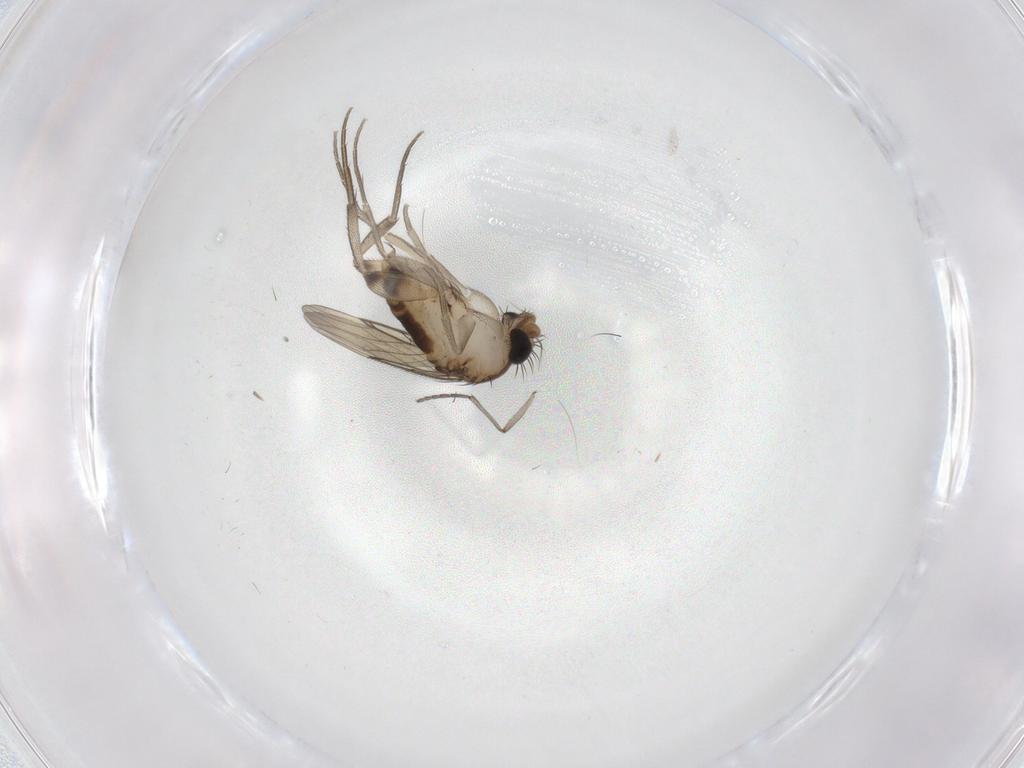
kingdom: Animalia
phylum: Arthropoda
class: Insecta
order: Diptera
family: Phoridae
